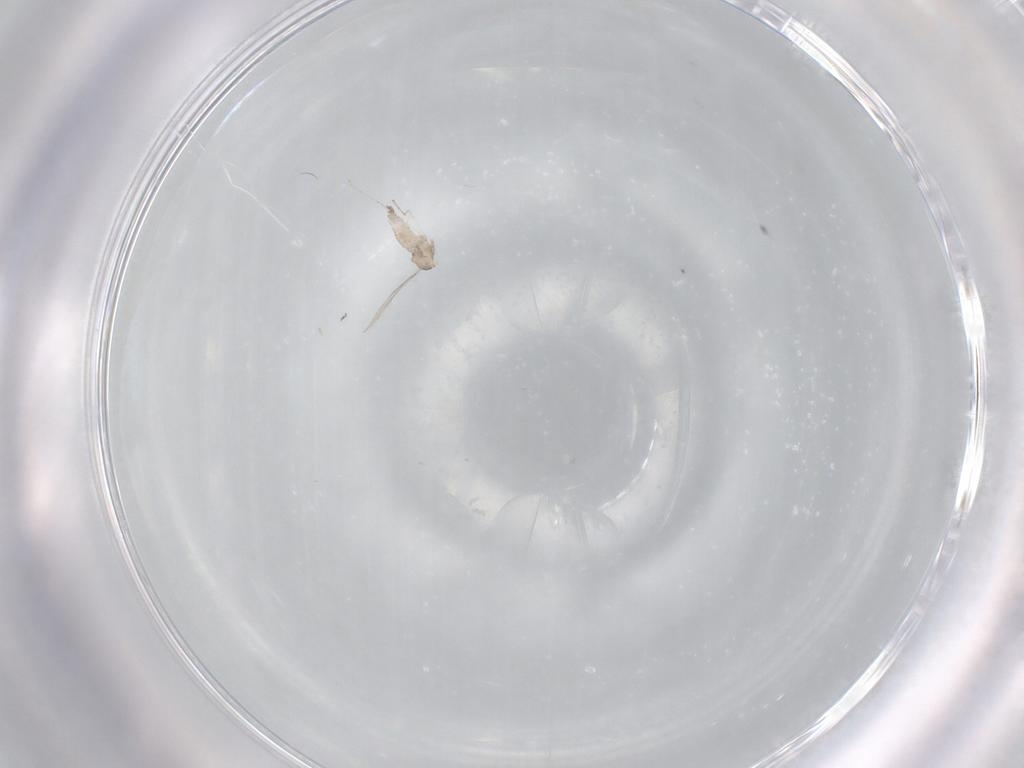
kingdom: Animalia
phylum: Arthropoda
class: Insecta
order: Diptera
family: Cecidomyiidae
